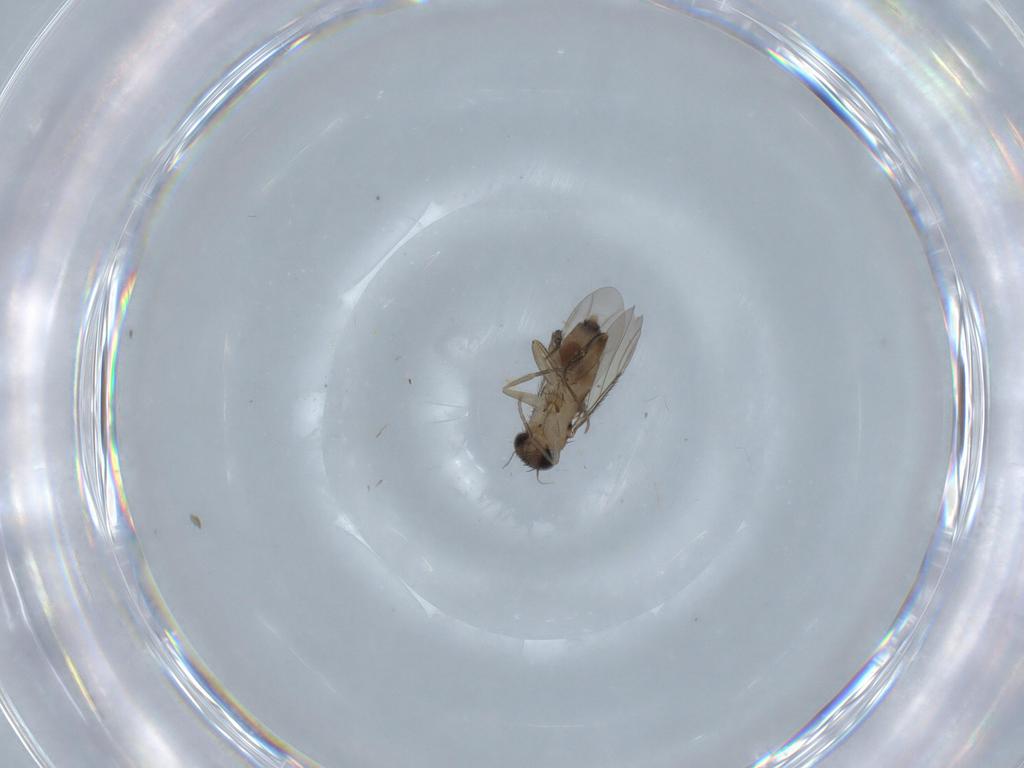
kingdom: Animalia
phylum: Arthropoda
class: Insecta
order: Diptera
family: Phoridae
